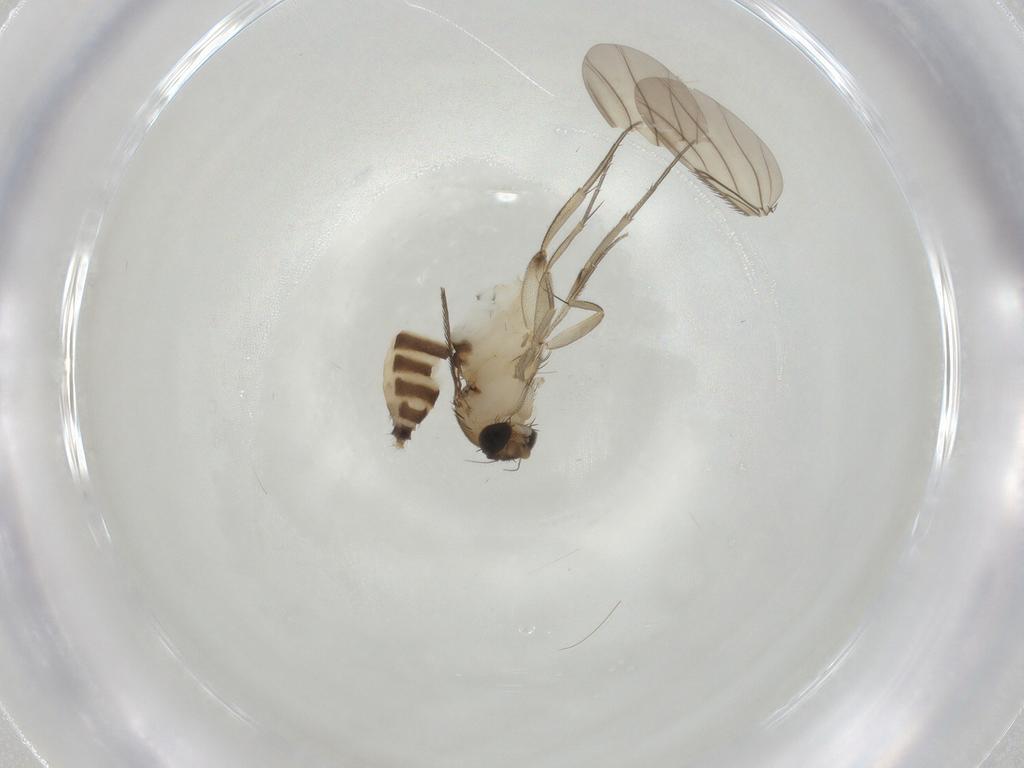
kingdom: Animalia
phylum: Arthropoda
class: Insecta
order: Diptera
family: Phoridae
